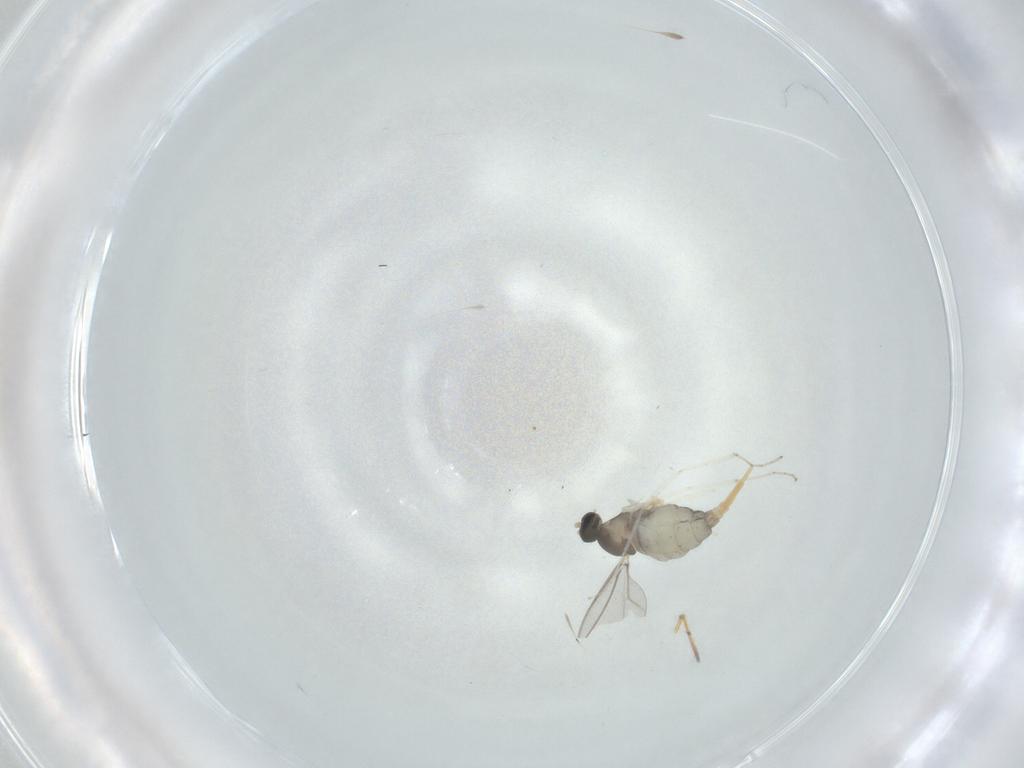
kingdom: Animalia
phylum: Arthropoda
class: Insecta
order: Diptera
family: Cecidomyiidae
